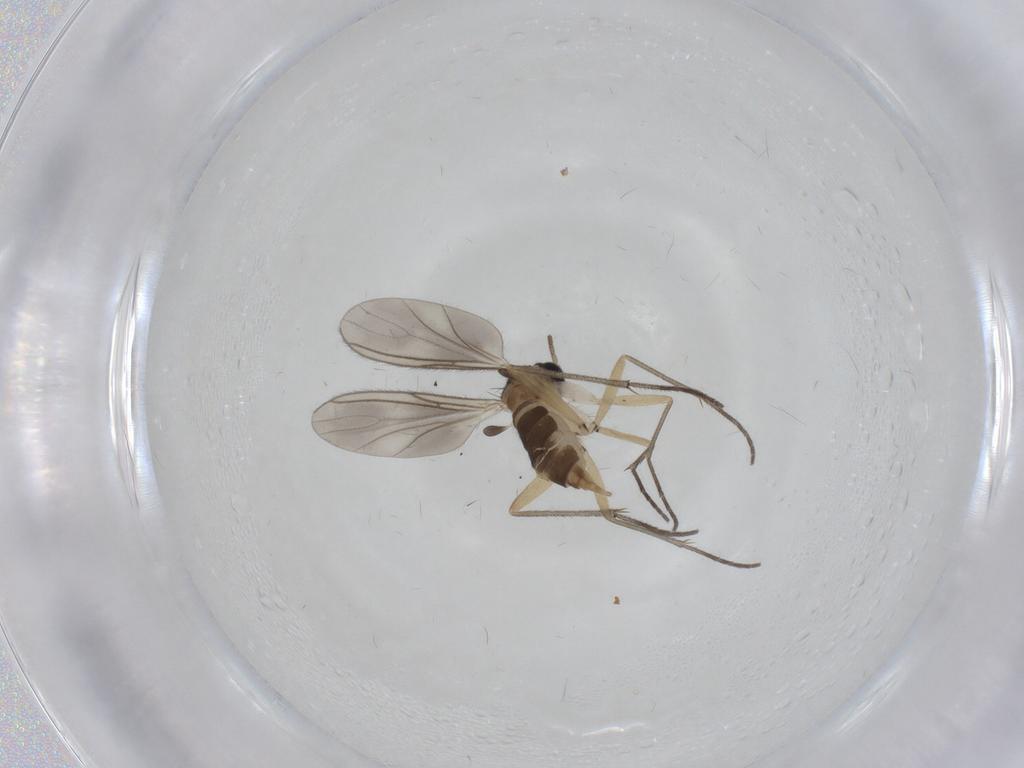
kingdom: Animalia
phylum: Arthropoda
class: Insecta
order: Diptera
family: Sciaridae
